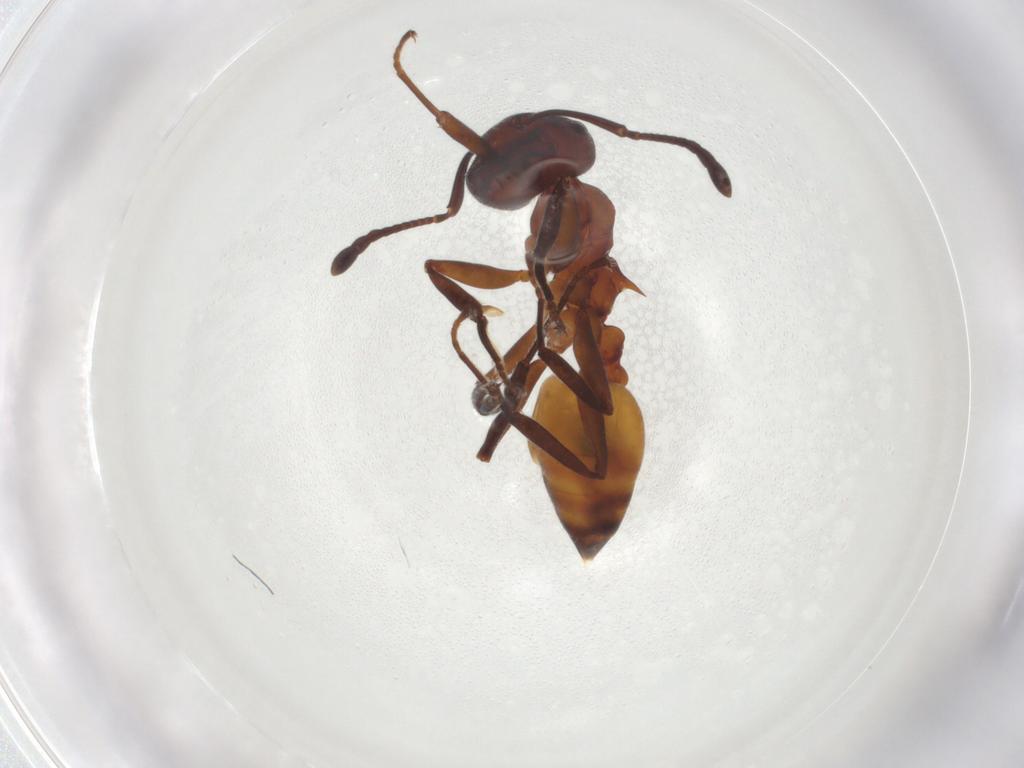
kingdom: Animalia
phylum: Arthropoda
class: Insecta
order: Hymenoptera
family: Formicidae
